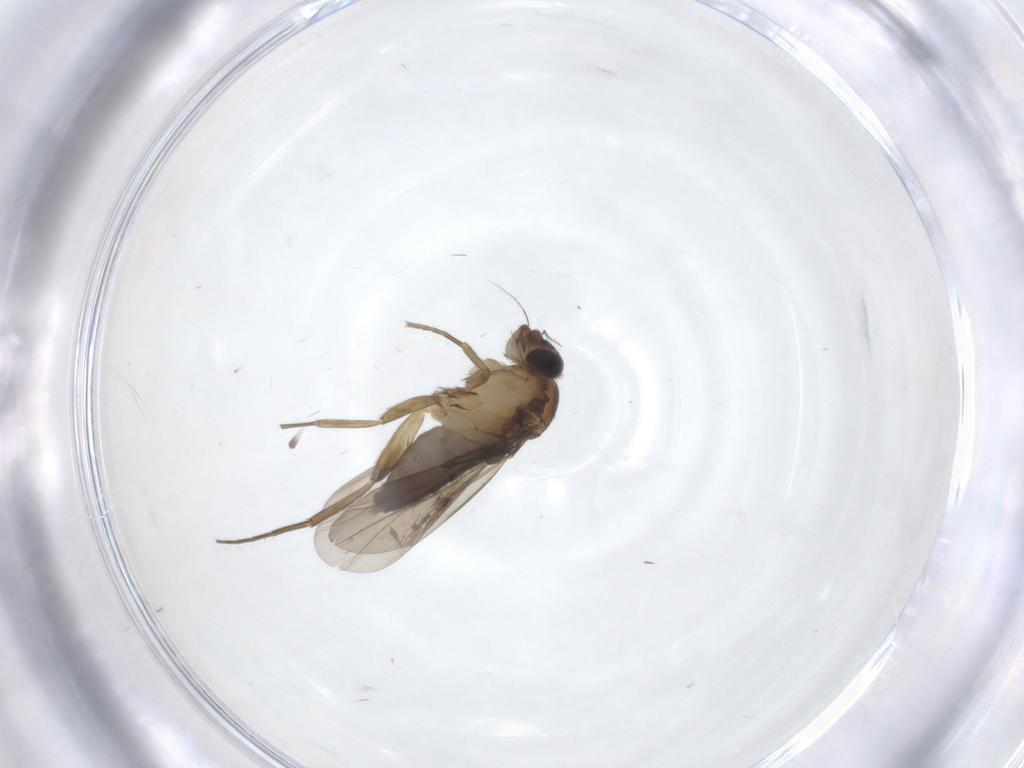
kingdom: Animalia
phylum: Arthropoda
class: Insecta
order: Diptera
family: Phoridae
